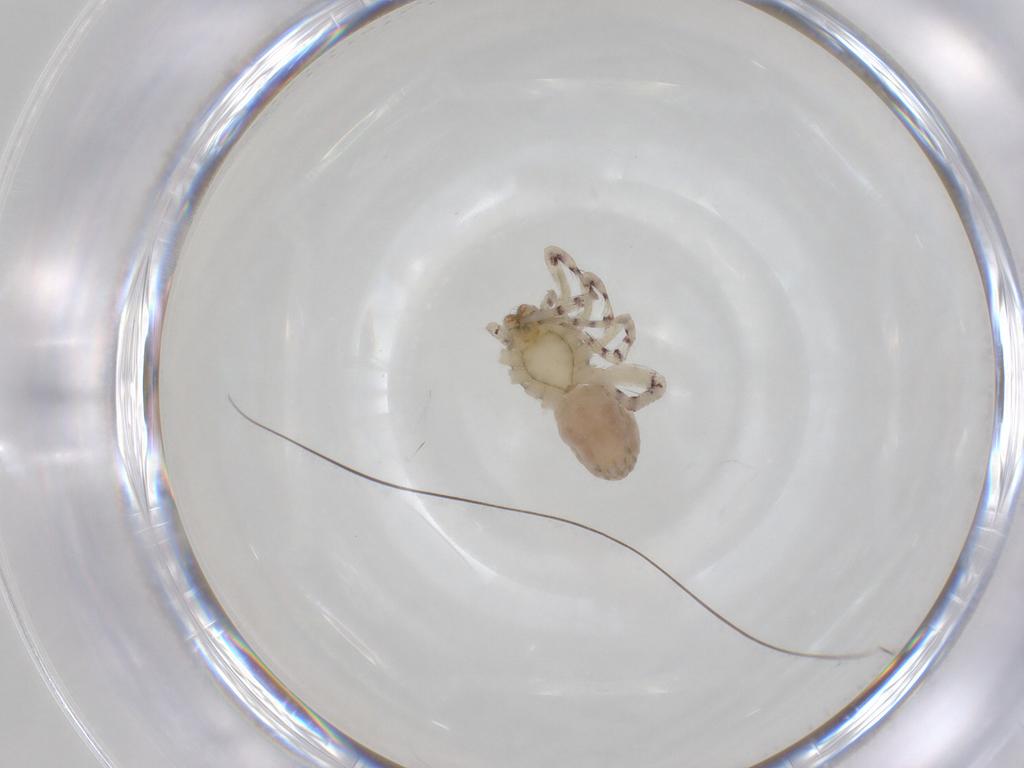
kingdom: Animalia
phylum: Arthropoda
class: Arachnida
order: Araneae
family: Anyphaenidae
